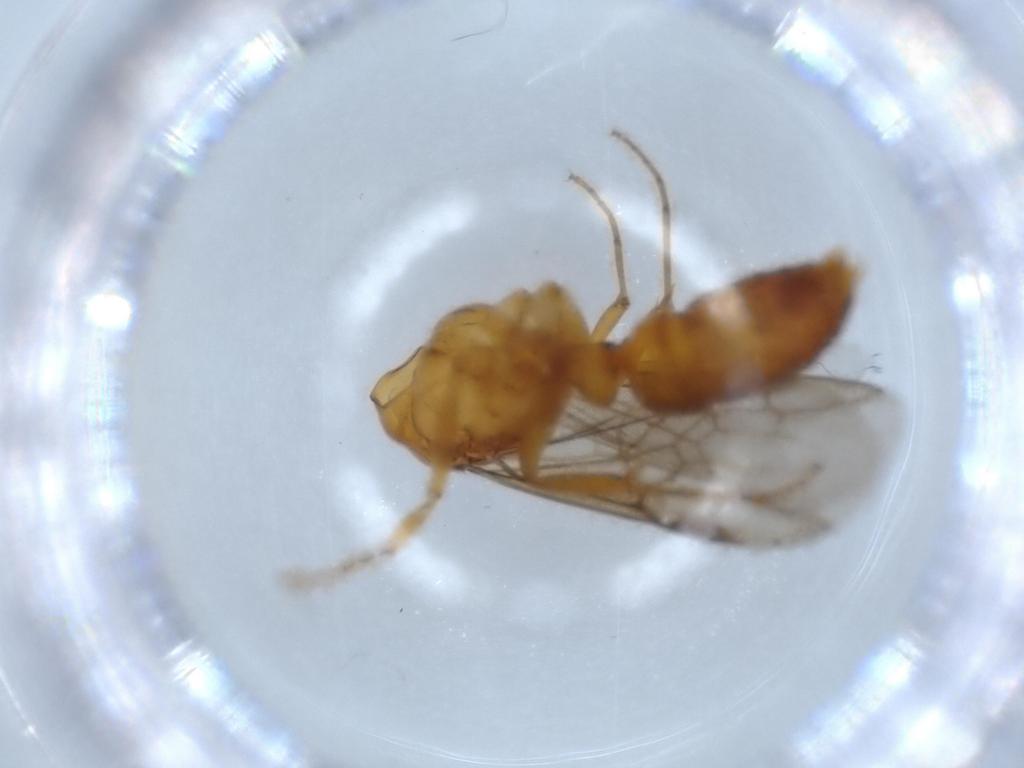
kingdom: Animalia
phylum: Arthropoda
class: Insecta
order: Hymenoptera
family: Formicidae
